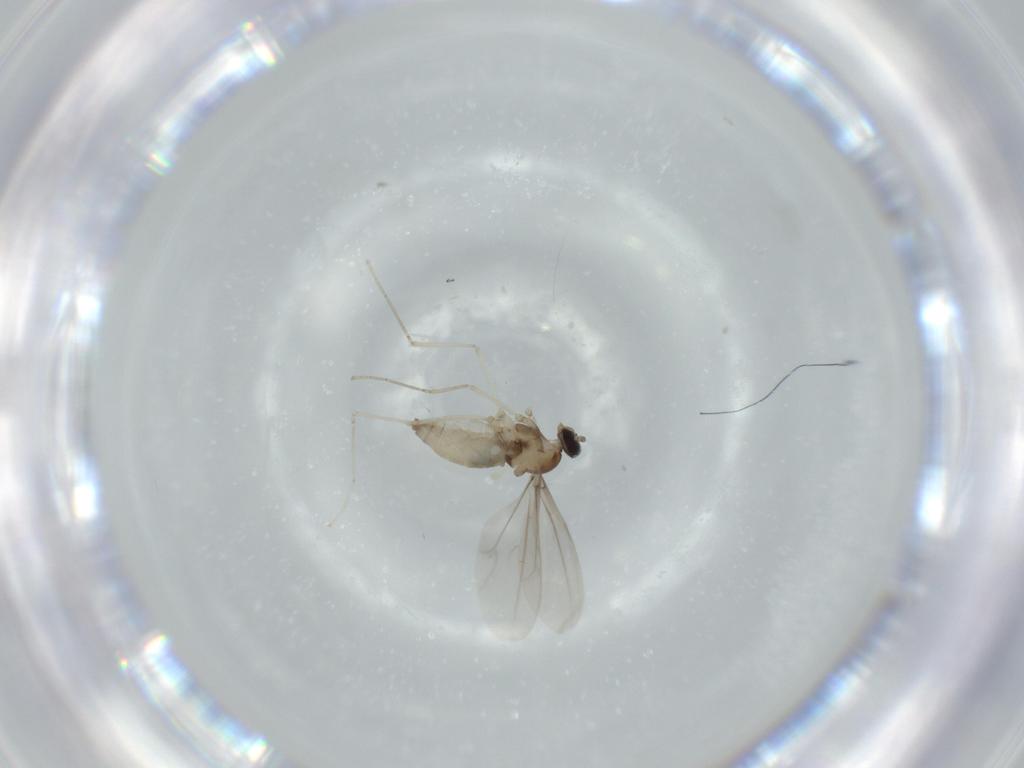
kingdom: Animalia
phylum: Arthropoda
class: Insecta
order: Diptera
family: Cecidomyiidae
